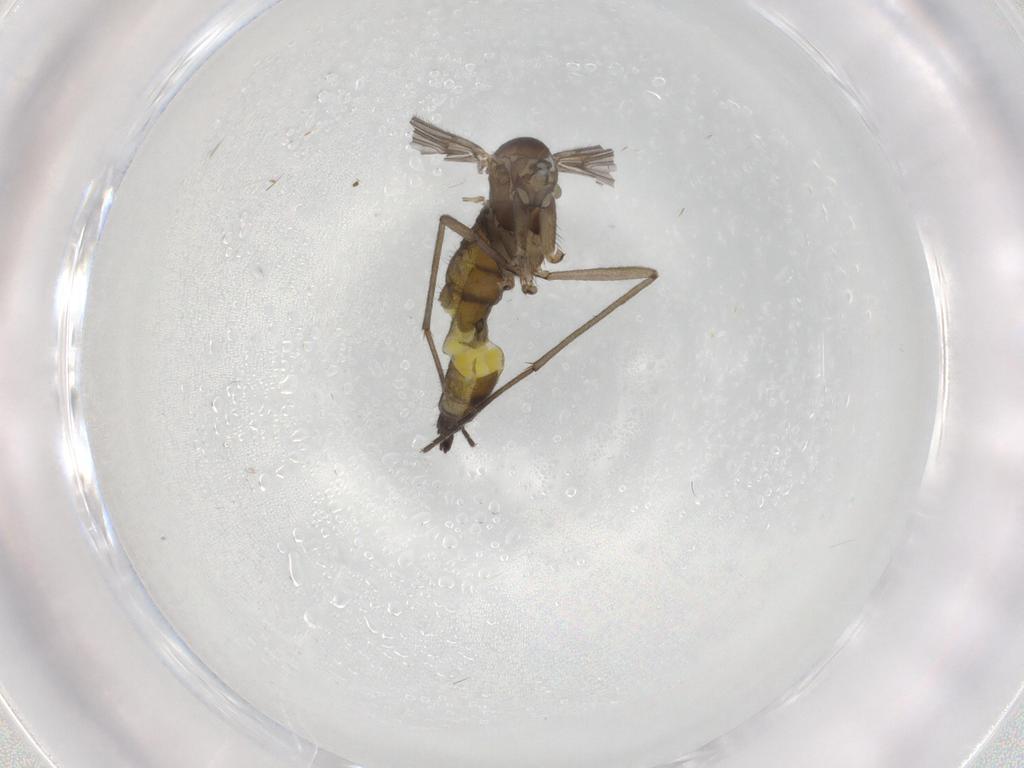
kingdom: Animalia
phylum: Arthropoda
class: Insecta
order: Diptera
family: Sciaridae
